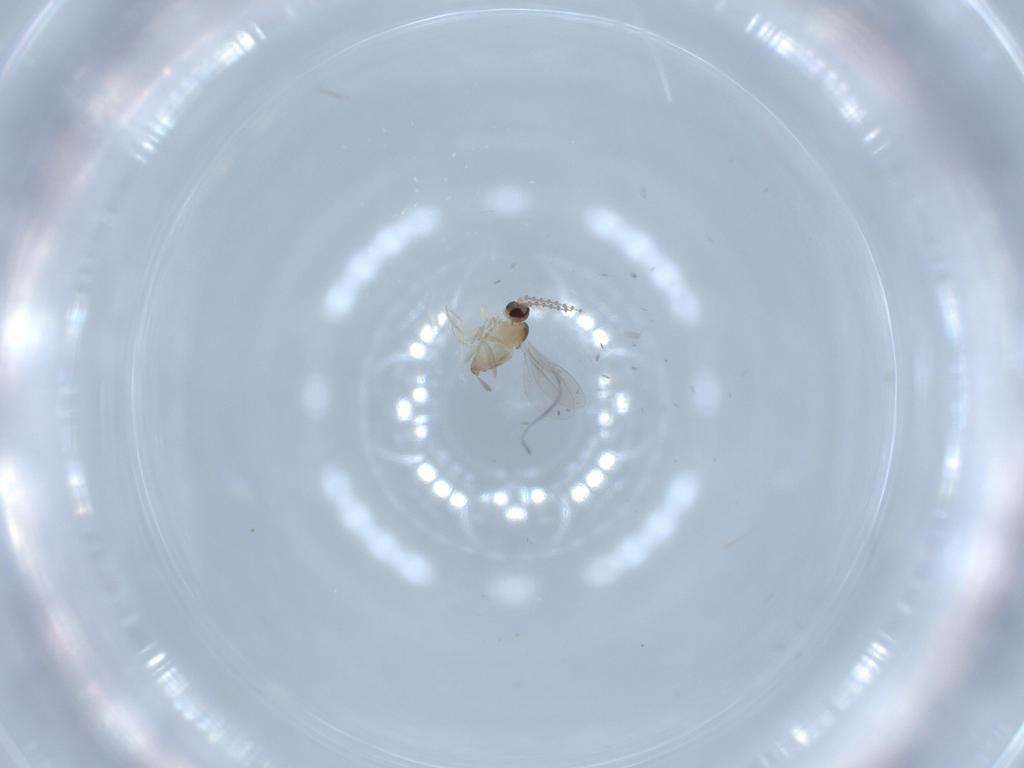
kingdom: Animalia
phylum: Arthropoda
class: Insecta
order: Diptera
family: Cecidomyiidae
